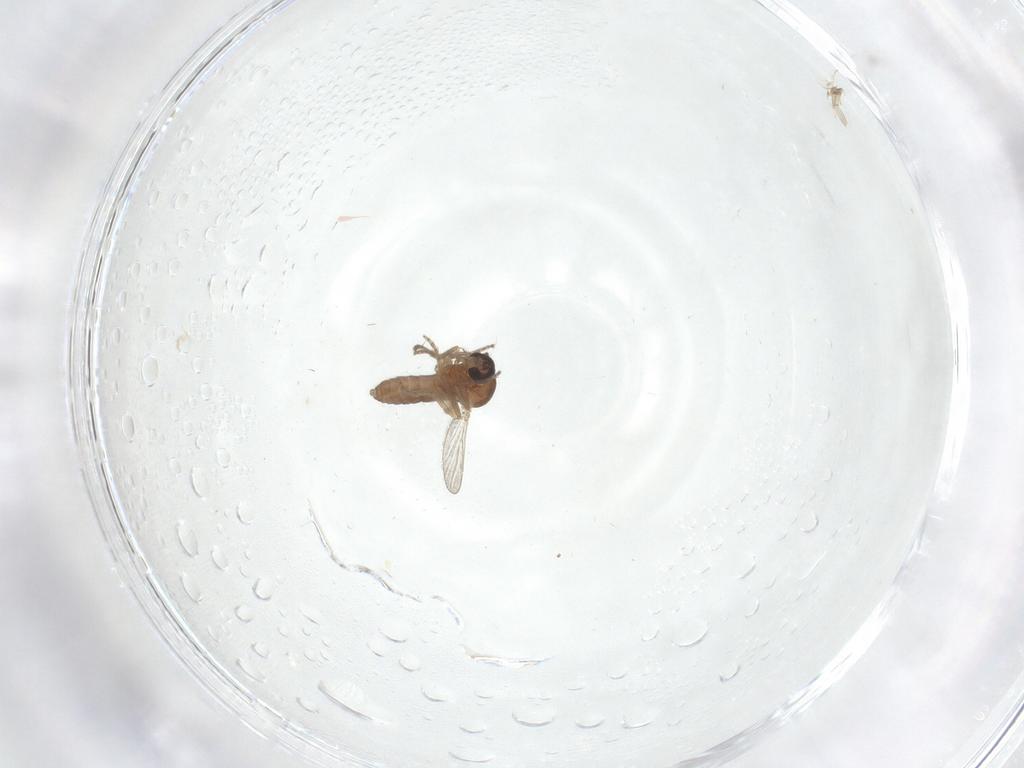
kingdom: Animalia
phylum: Arthropoda
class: Insecta
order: Diptera
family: Ceratopogonidae
